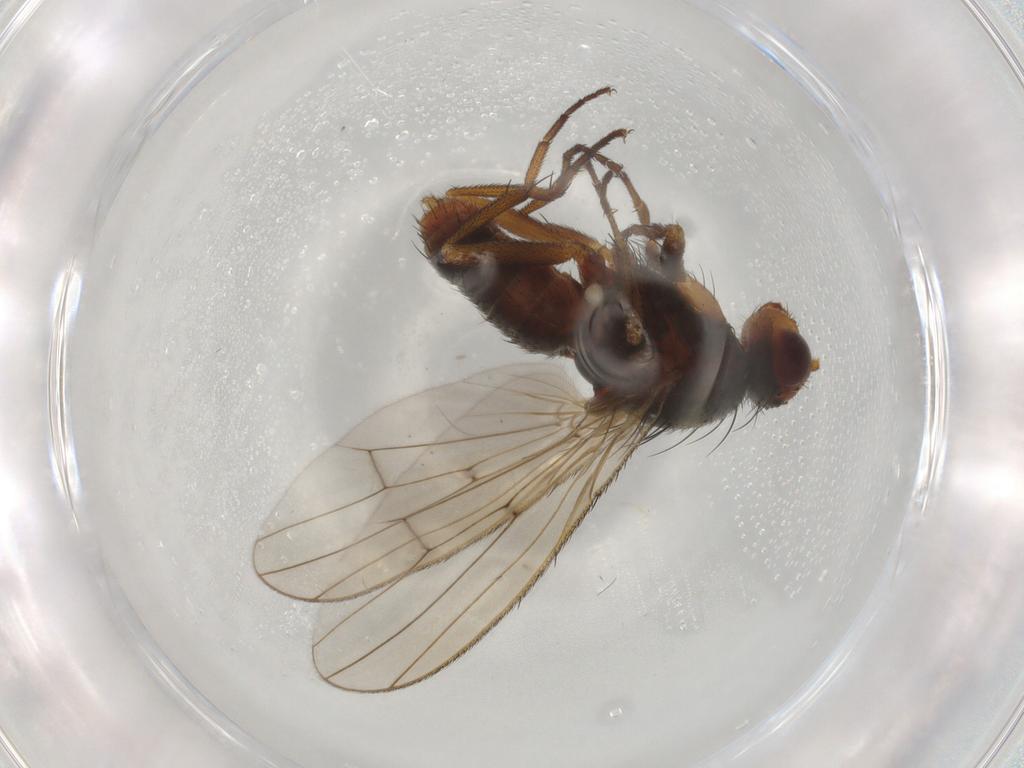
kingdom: Animalia
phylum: Arthropoda
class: Insecta
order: Diptera
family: Heleomyzidae
